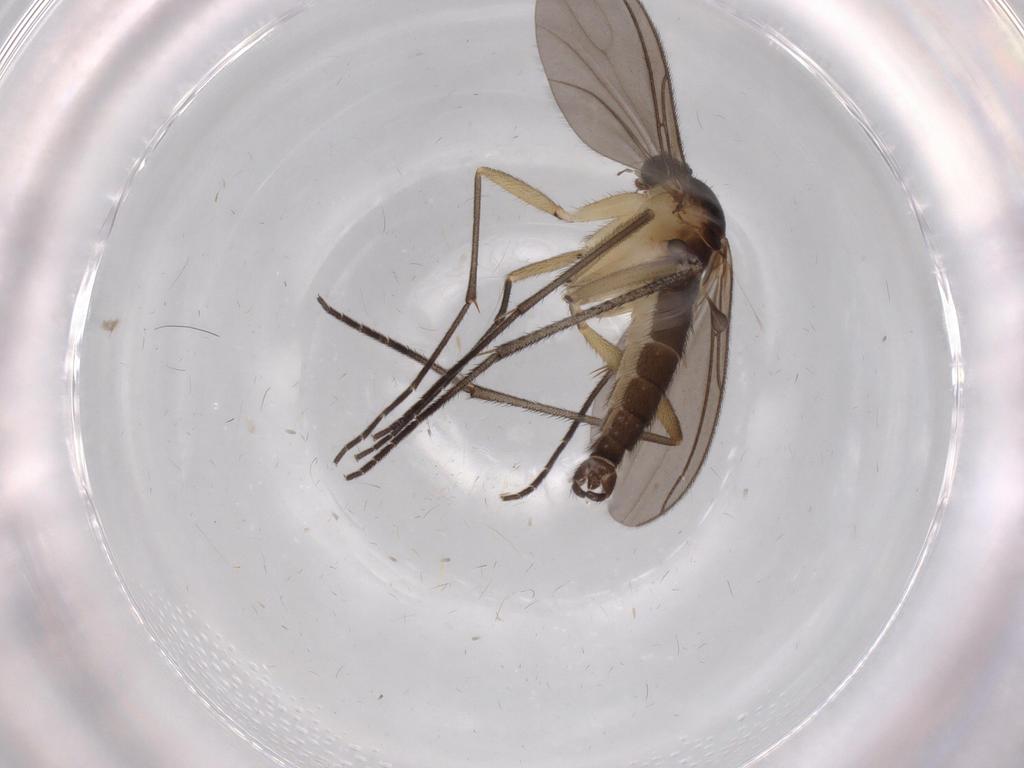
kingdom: Animalia
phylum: Arthropoda
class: Insecta
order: Diptera
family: Sciaridae
